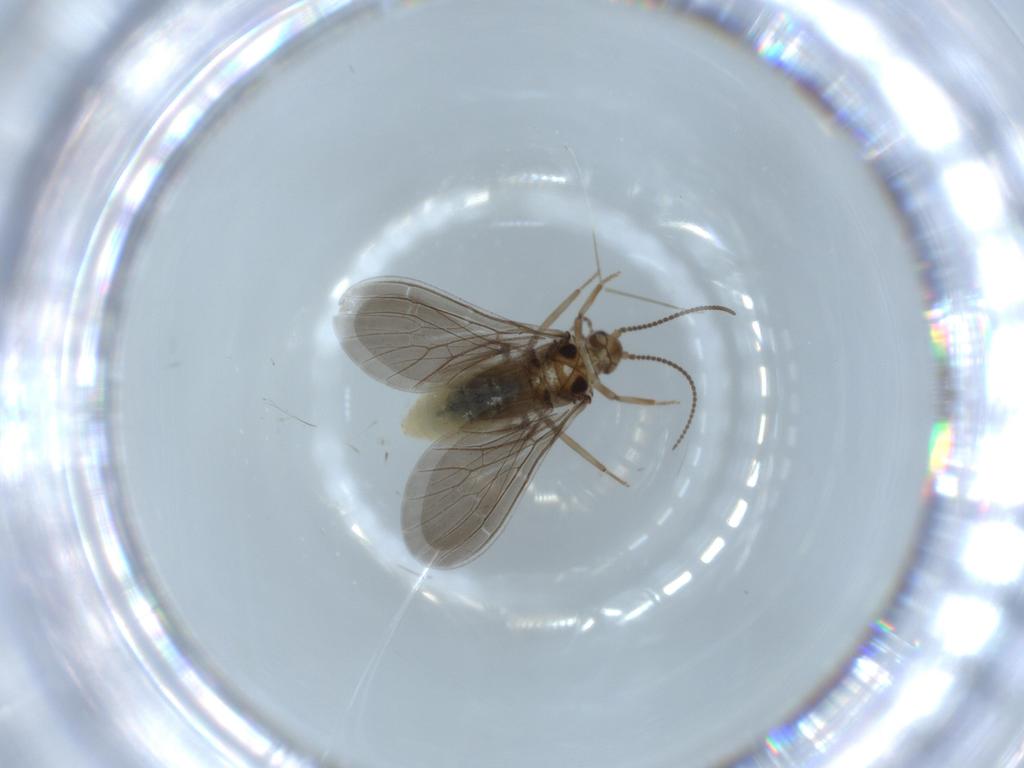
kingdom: Animalia
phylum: Arthropoda
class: Insecta
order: Neuroptera
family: Coniopterygidae
